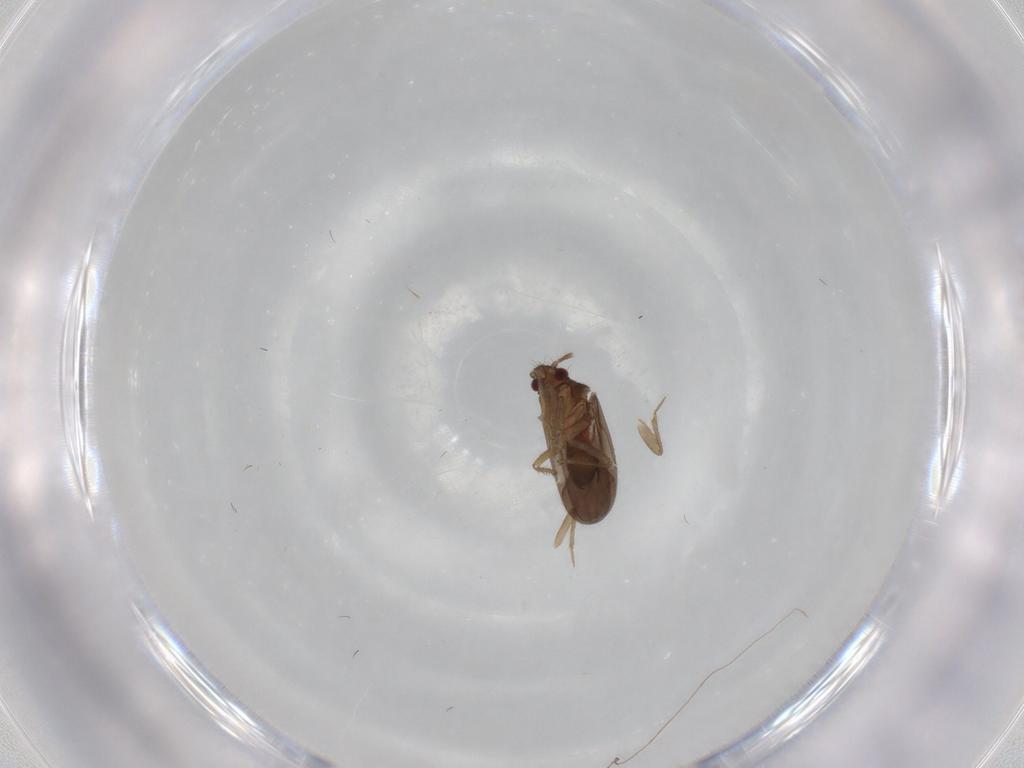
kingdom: Animalia
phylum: Arthropoda
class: Insecta
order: Hemiptera
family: Ceratocombidae
